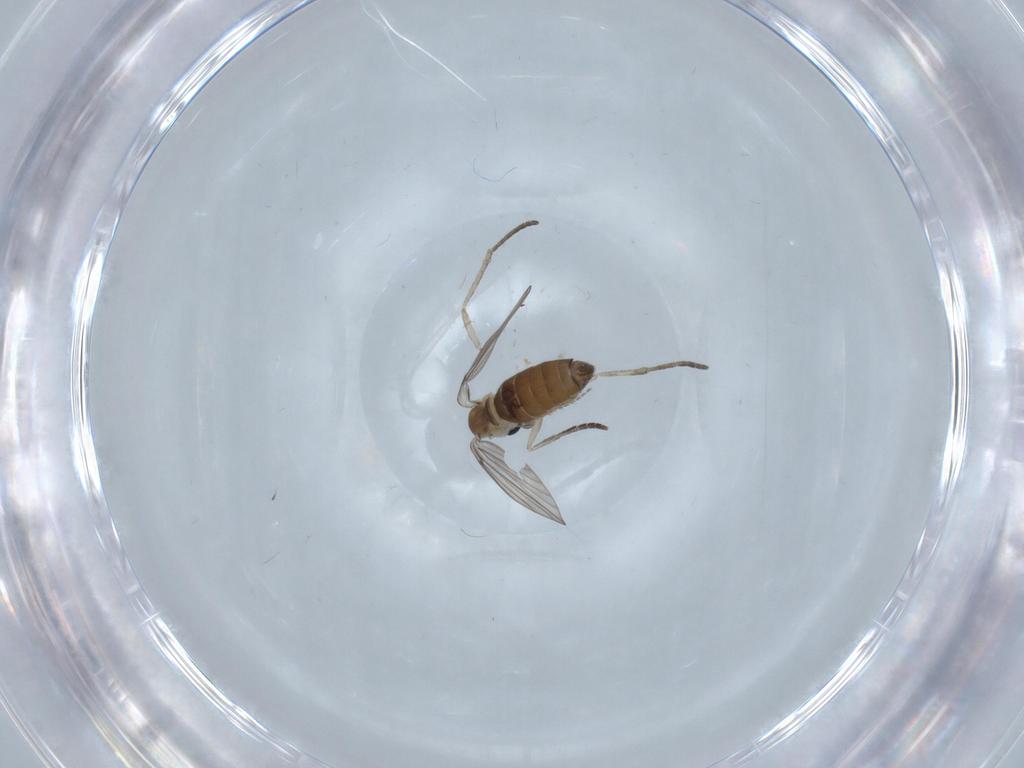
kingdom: Animalia
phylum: Arthropoda
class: Insecta
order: Diptera
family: Psychodidae
